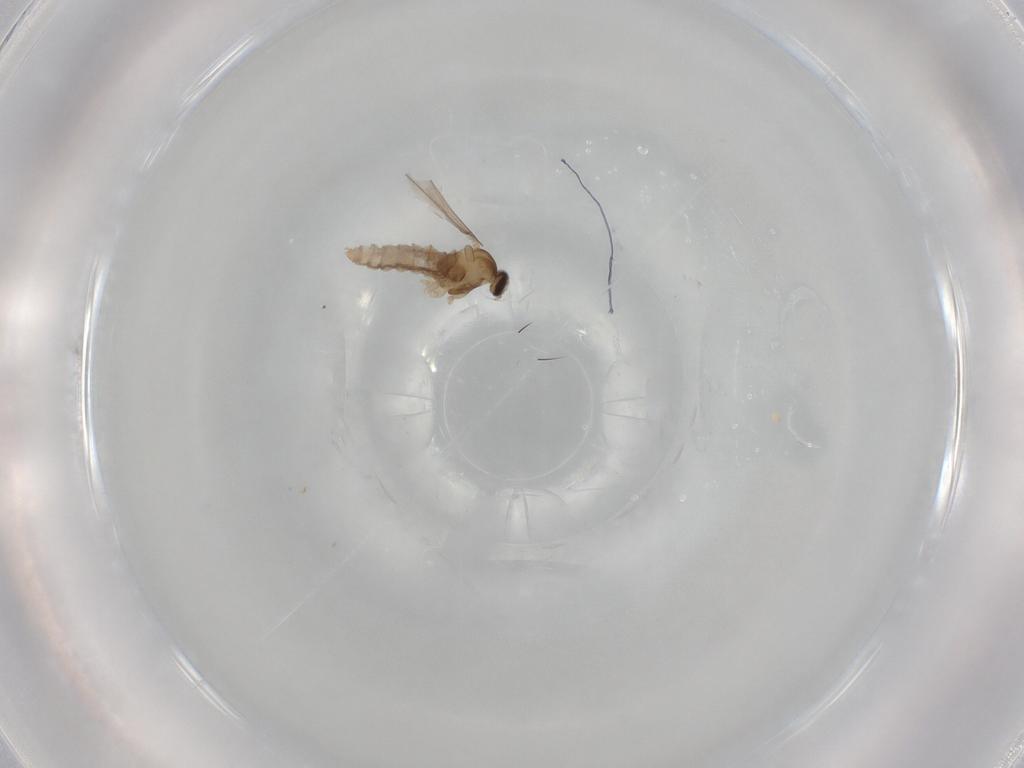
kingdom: Animalia
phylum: Arthropoda
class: Insecta
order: Diptera
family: Cecidomyiidae
